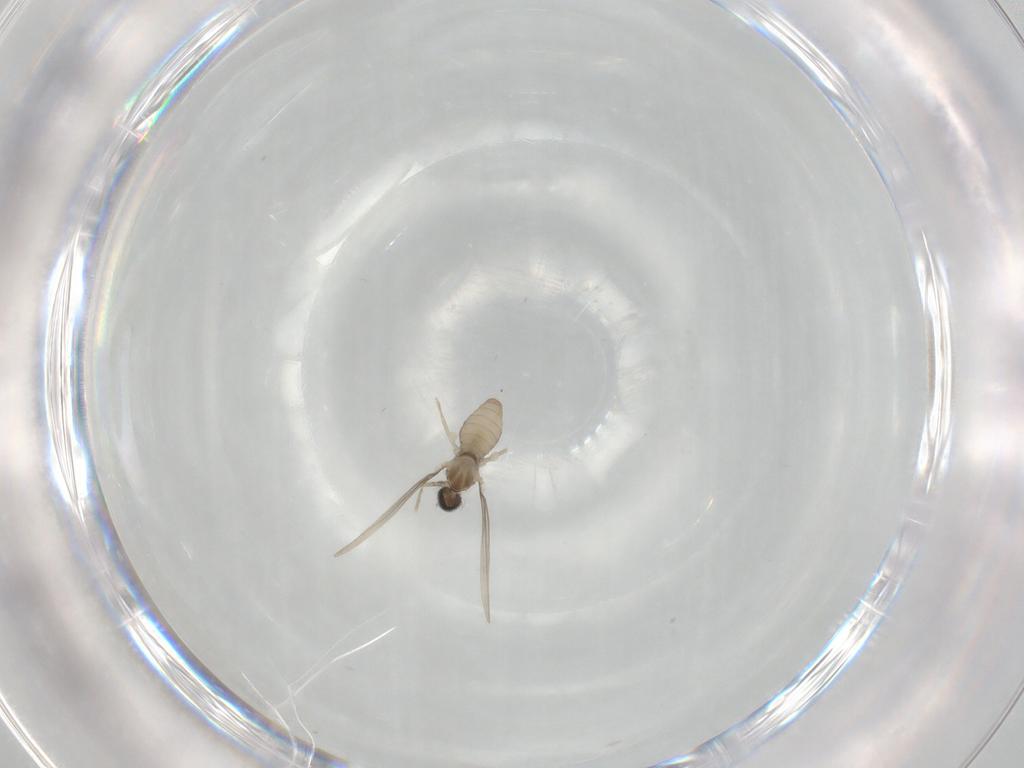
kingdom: Animalia
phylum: Arthropoda
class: Insecta
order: Diptera
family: Cecidomyiidae
